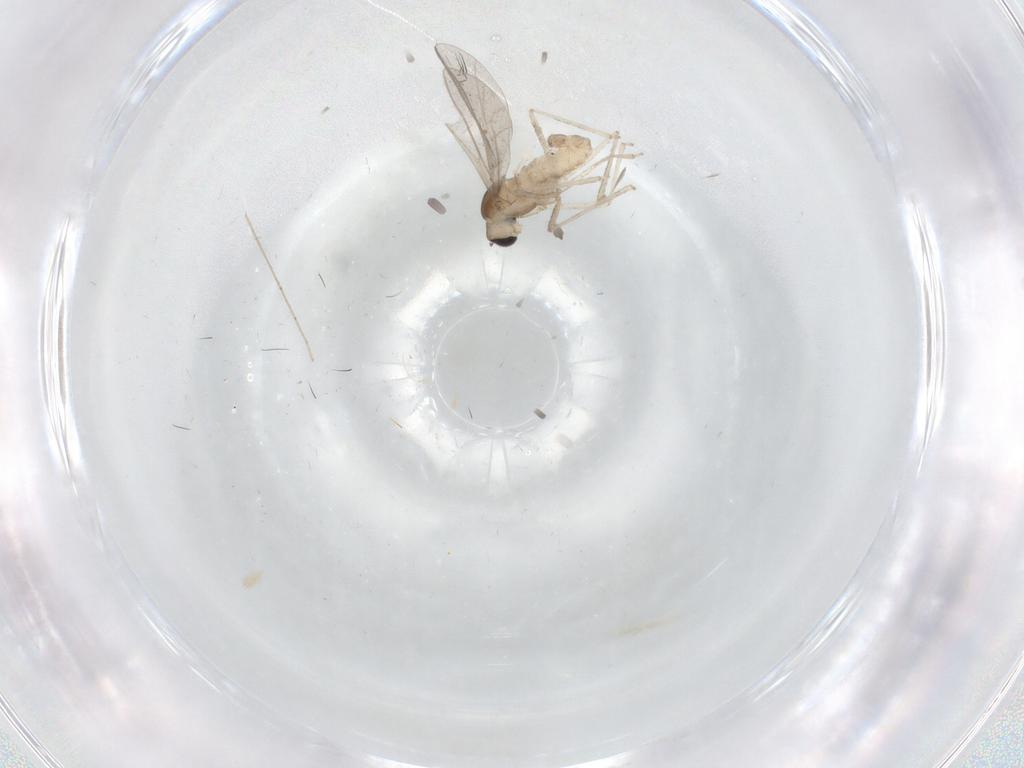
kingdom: Animalia
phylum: Arthropoda
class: Insecta
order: Diptera
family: Cecidomyiidae
